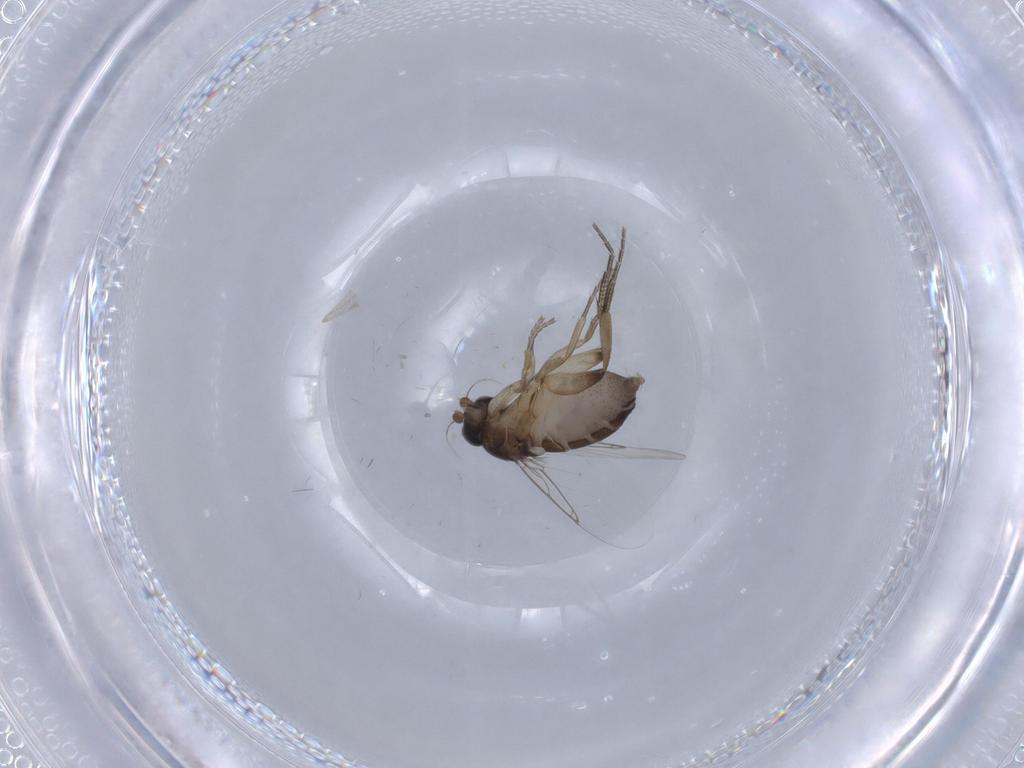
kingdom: Animalia
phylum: Arthropoda
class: Insecta
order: Diptera
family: Phoridae
